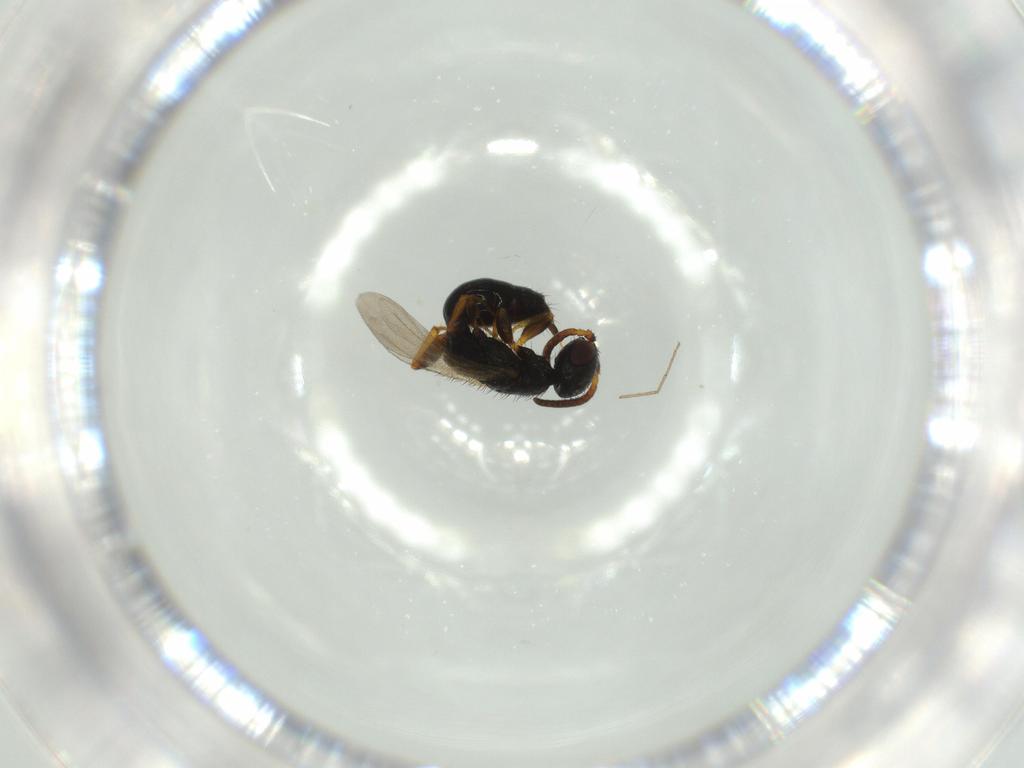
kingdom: Animalia
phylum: Arthropoda
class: Insecta
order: Hymenoptera
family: Bethylidae
